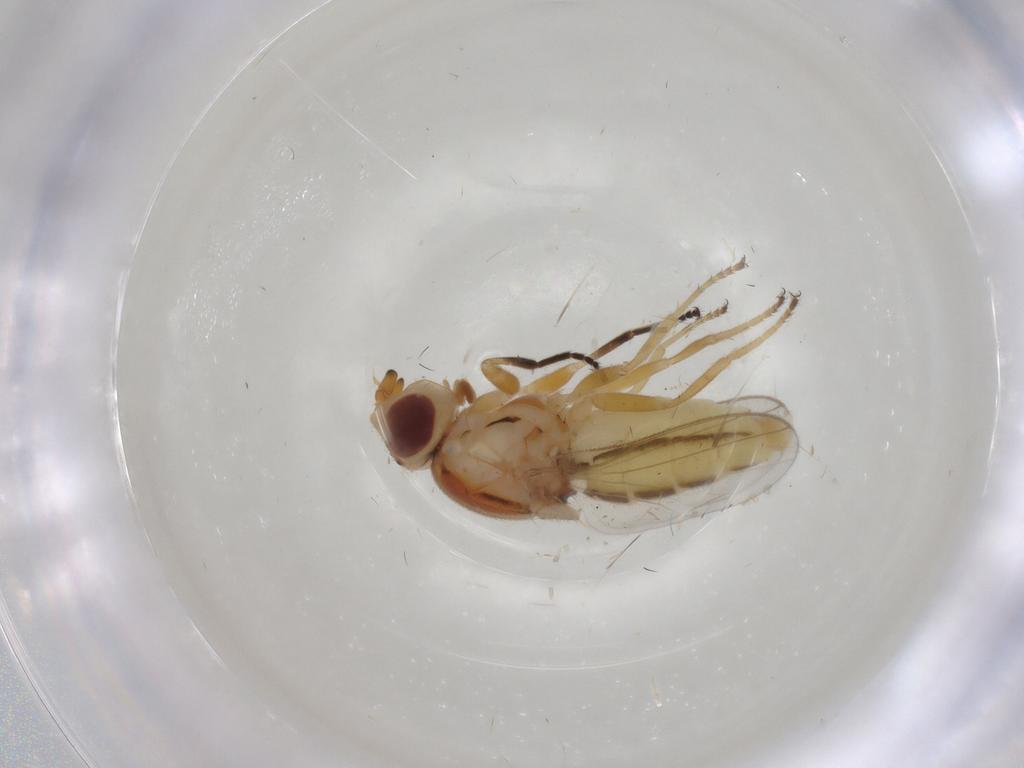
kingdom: Animalia
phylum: Arthropoda
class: Insecta
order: Diptera
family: Chloropidae
